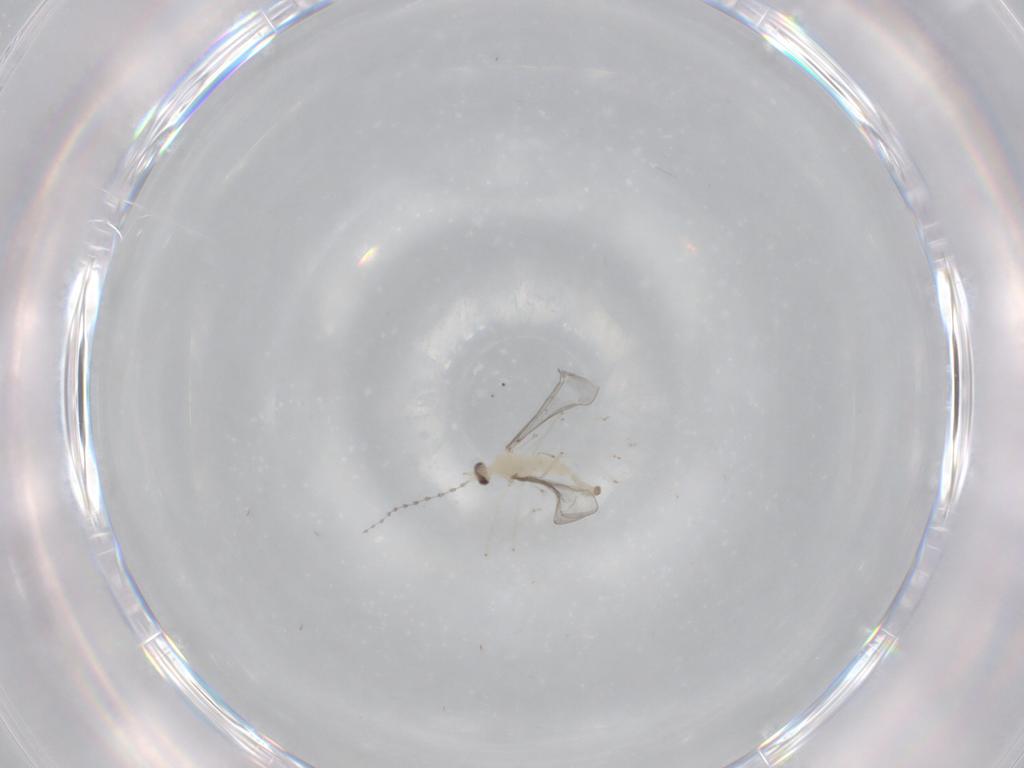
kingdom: Animalia
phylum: Arthropoda
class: Insecta
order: Diptera
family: Cecidomyiidae
